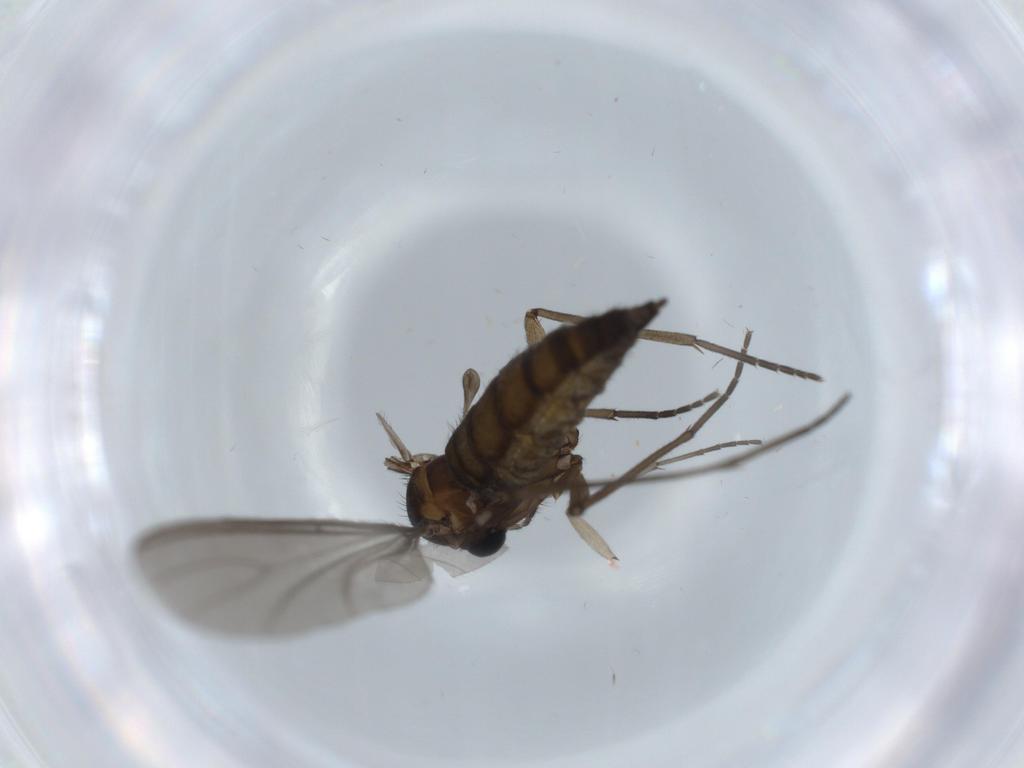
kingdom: Animalia
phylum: Arthropoda
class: Insecta
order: Diptera
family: Sciaridae
